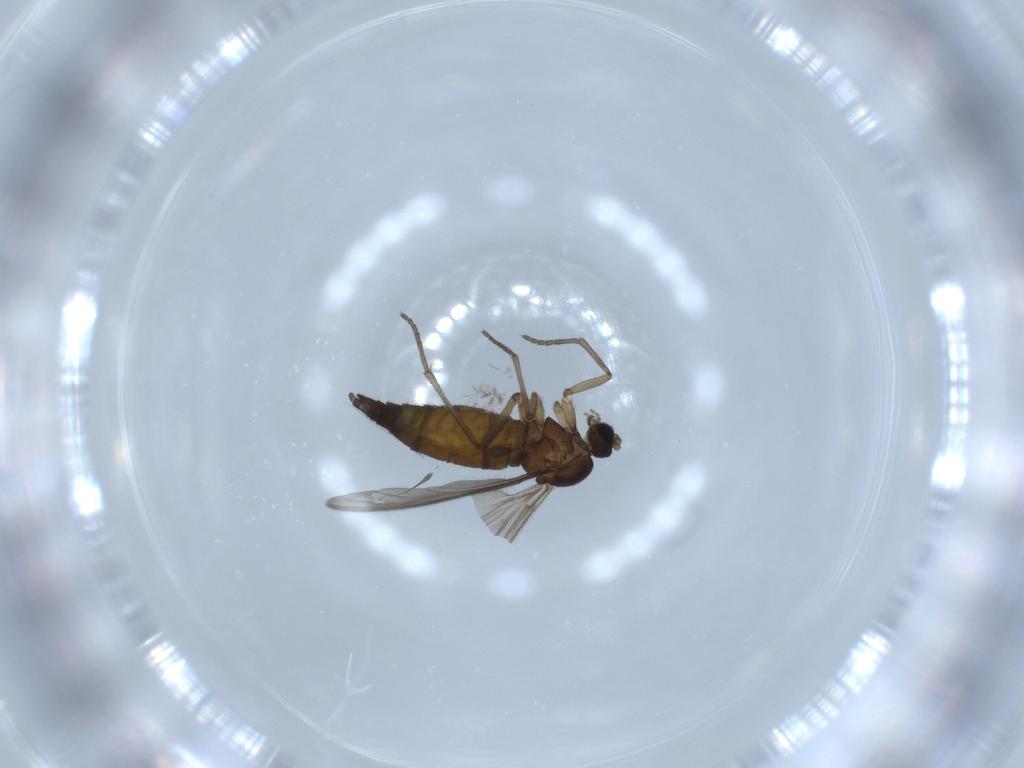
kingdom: Animalia
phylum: Arthropoda
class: Insecta
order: Diptera
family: Sciaridae
